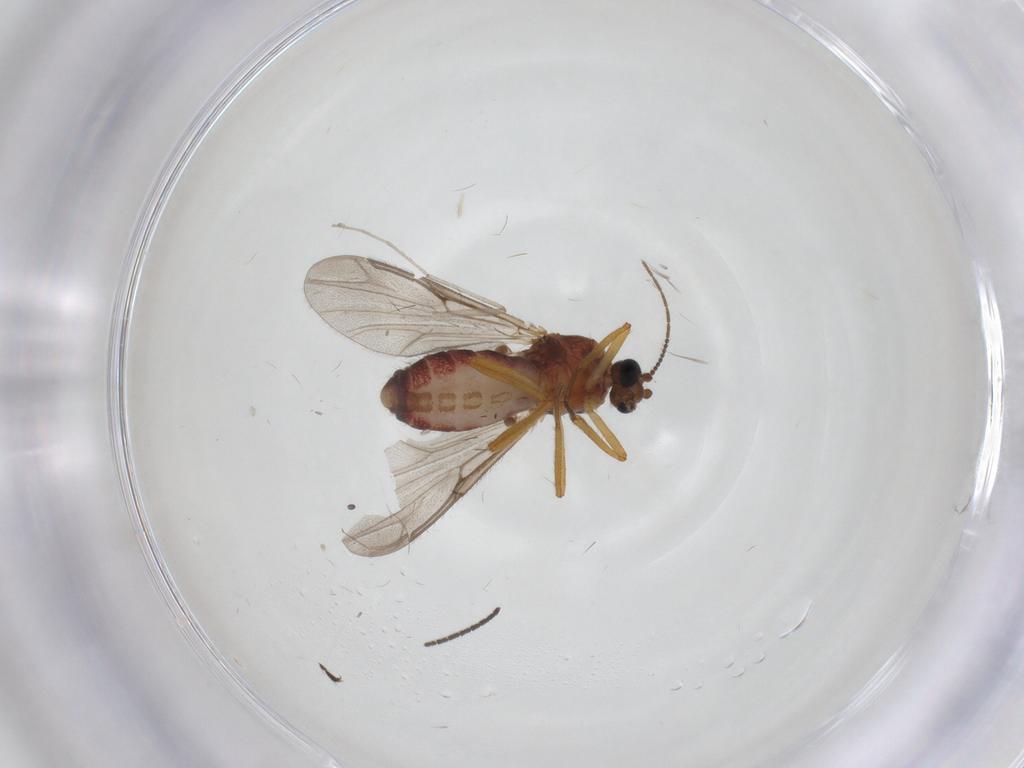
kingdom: Animalia
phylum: Arthropoda
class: Insecta
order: Diptera
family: Ceratopogonidae
